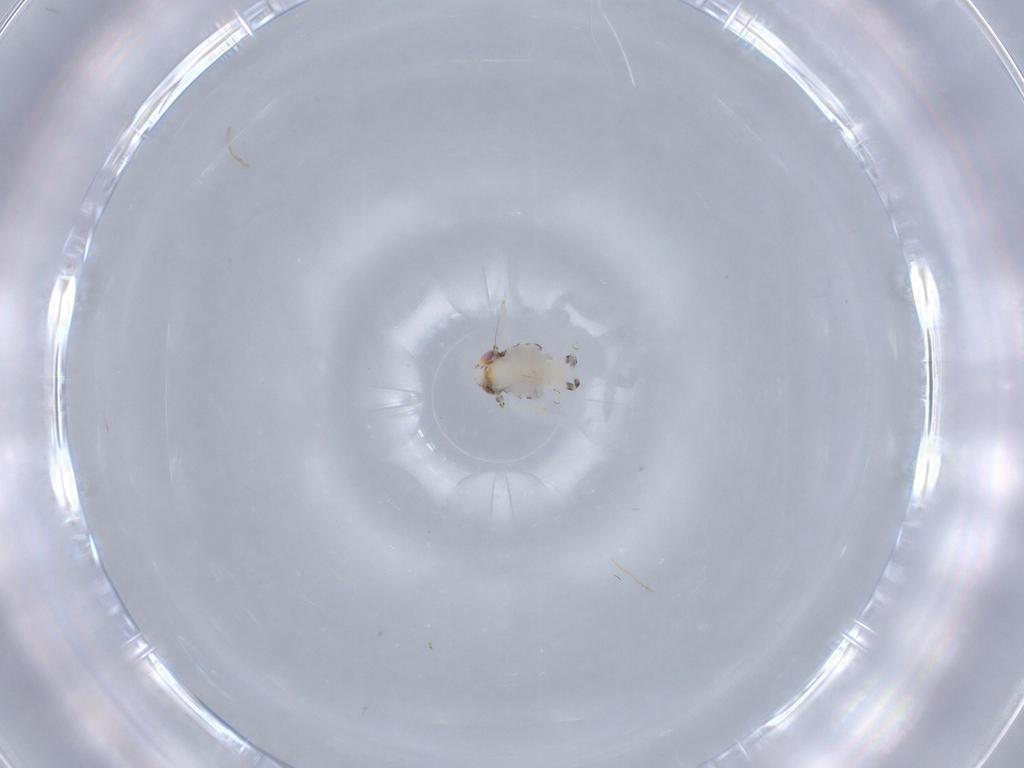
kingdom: Animalia
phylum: Arthropoda
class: Insecta
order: Hemiptera
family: Nogodinidae
